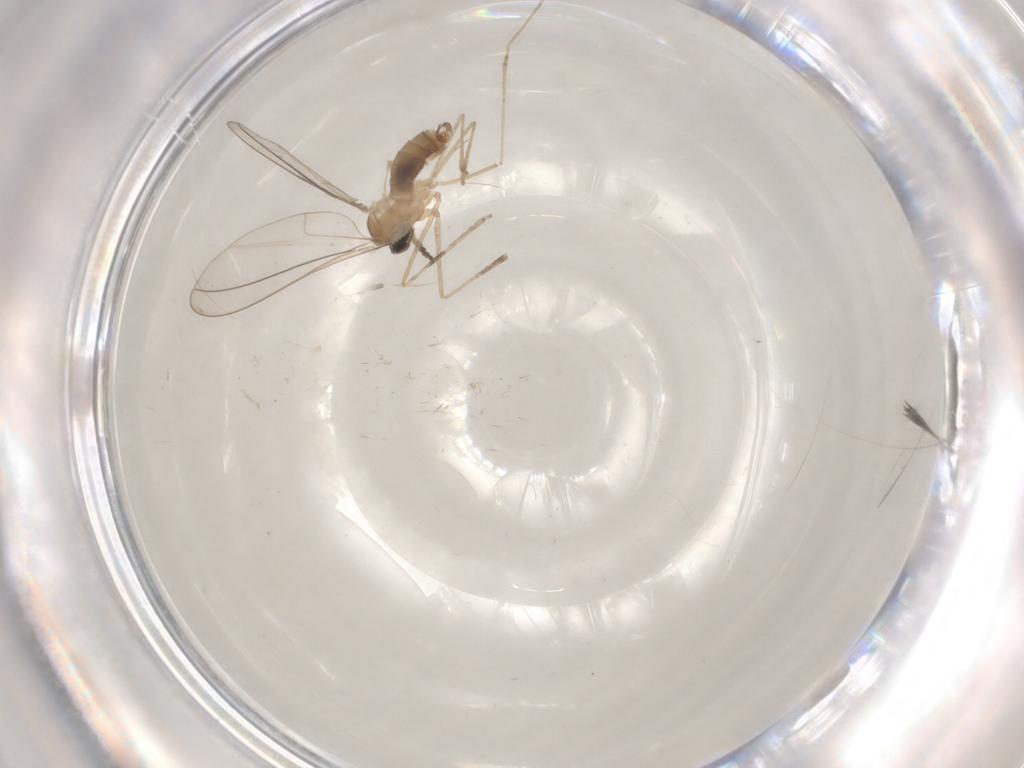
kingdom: Animalia
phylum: Arthropoda
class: Insecta
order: Diptera
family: Cecidomyiidae
